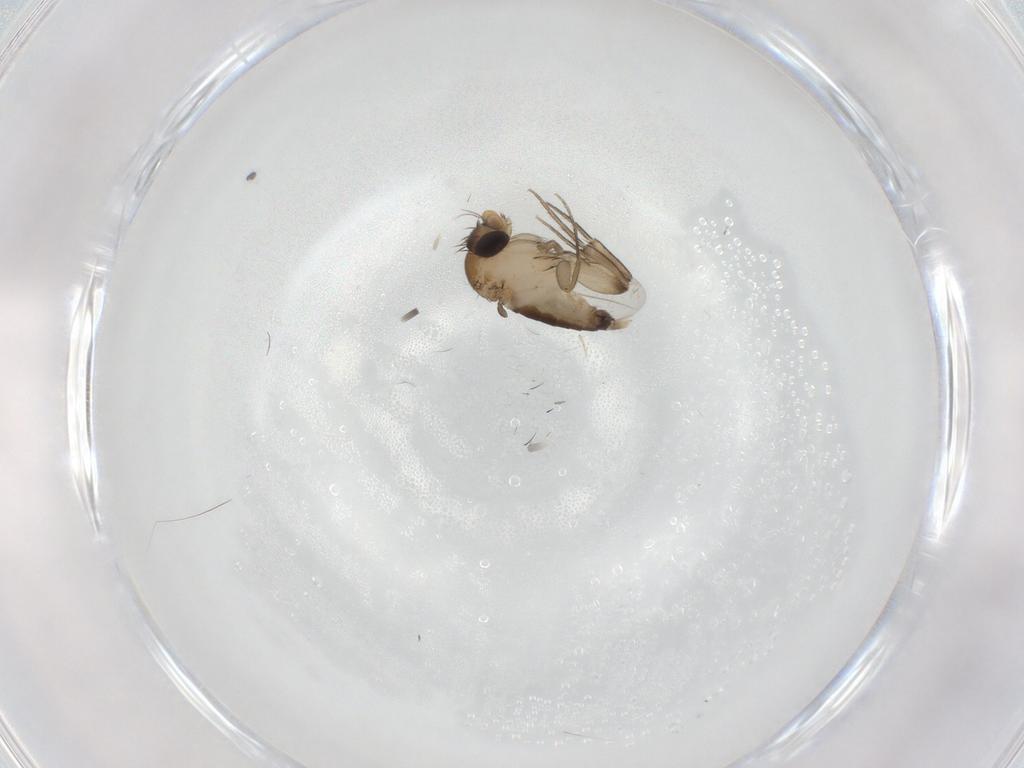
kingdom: Animalia
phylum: Arthropoda
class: Insecta
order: Diptera
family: Phoridae
